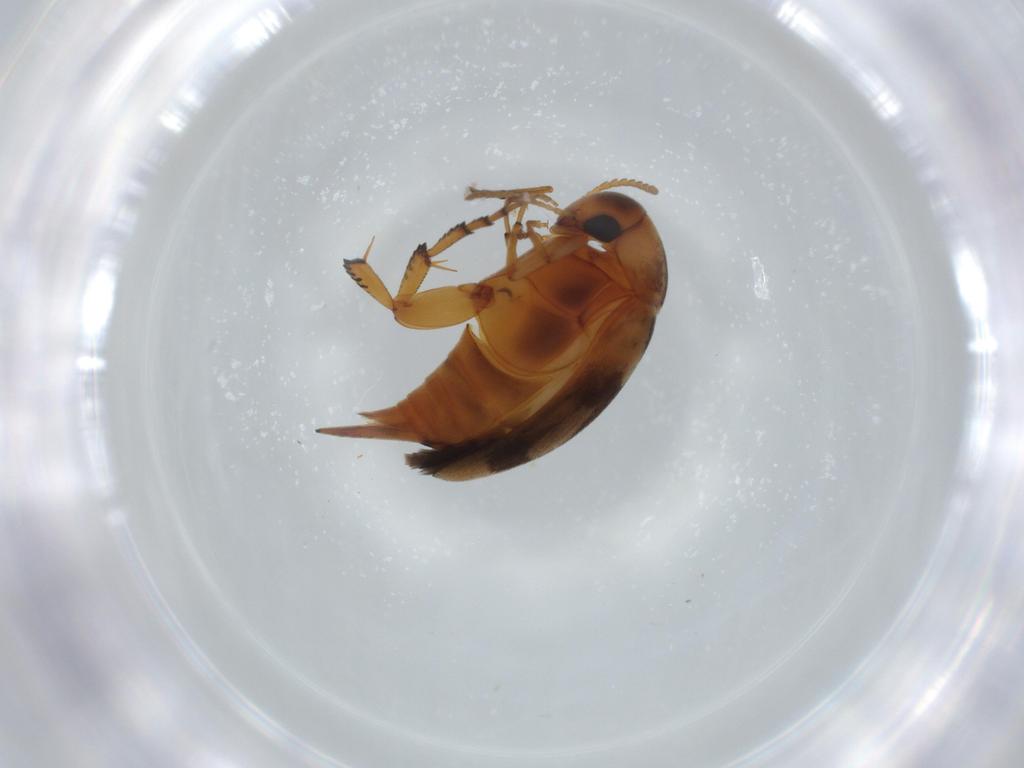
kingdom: Animalia
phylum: Arthropoda
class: Insecta
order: Coleoptera
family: Mordellidae
